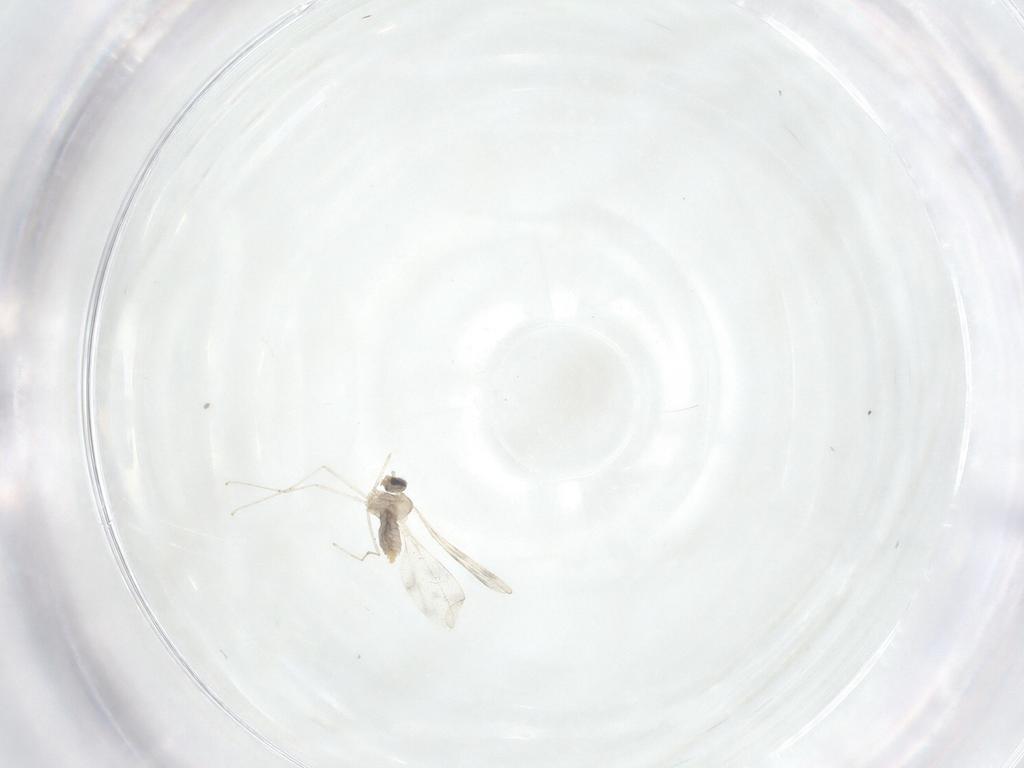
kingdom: Animalia
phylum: Arthropoda
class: Insecta
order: Diptera
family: Cecidomyiidae
